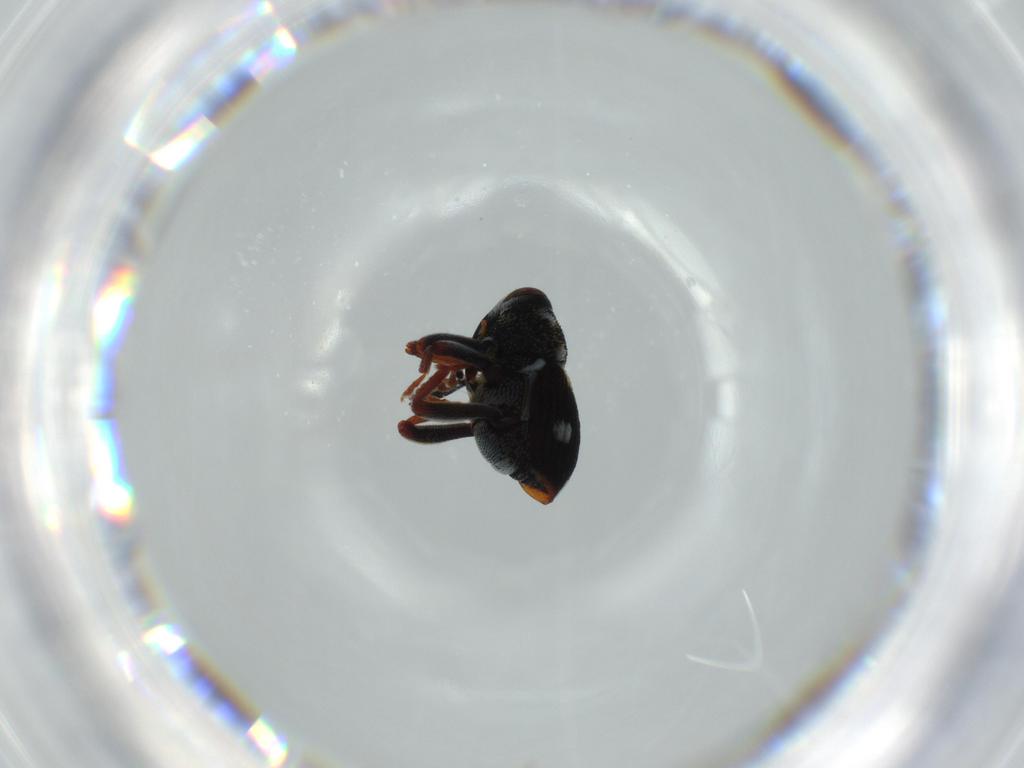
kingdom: Animalia
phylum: Arthropoda
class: Insecta
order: Coleoptera
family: Curculionidae
